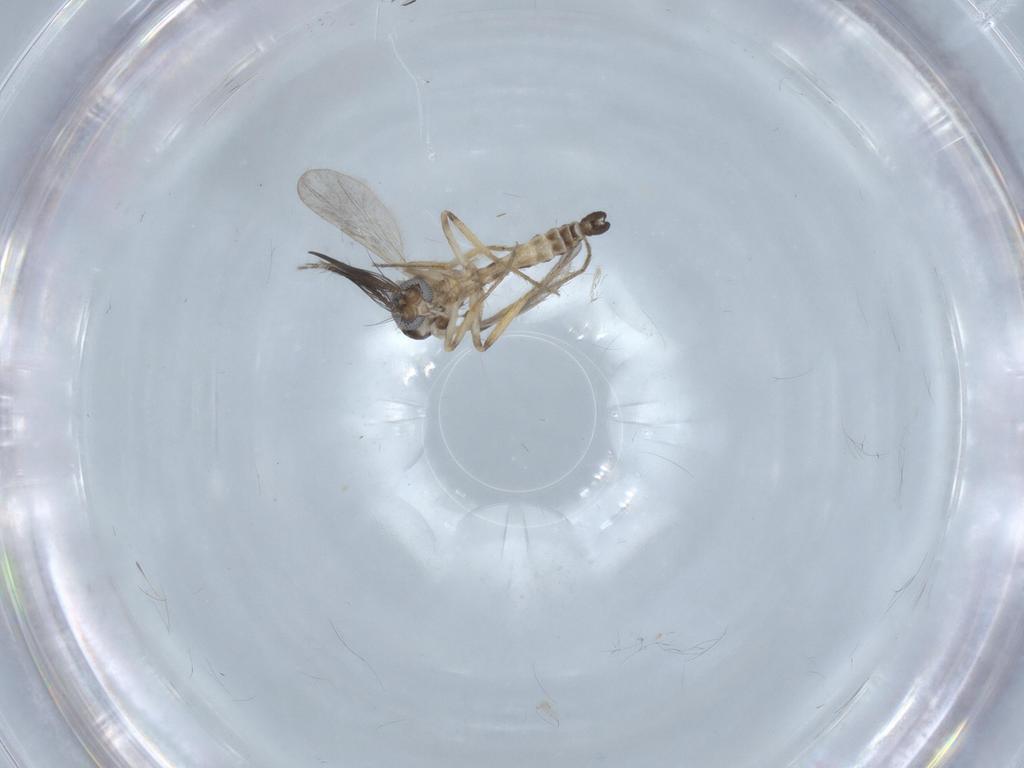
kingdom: Animalia
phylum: Arthropoda
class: Insecta
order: Diptera
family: Ceratopogonidae
